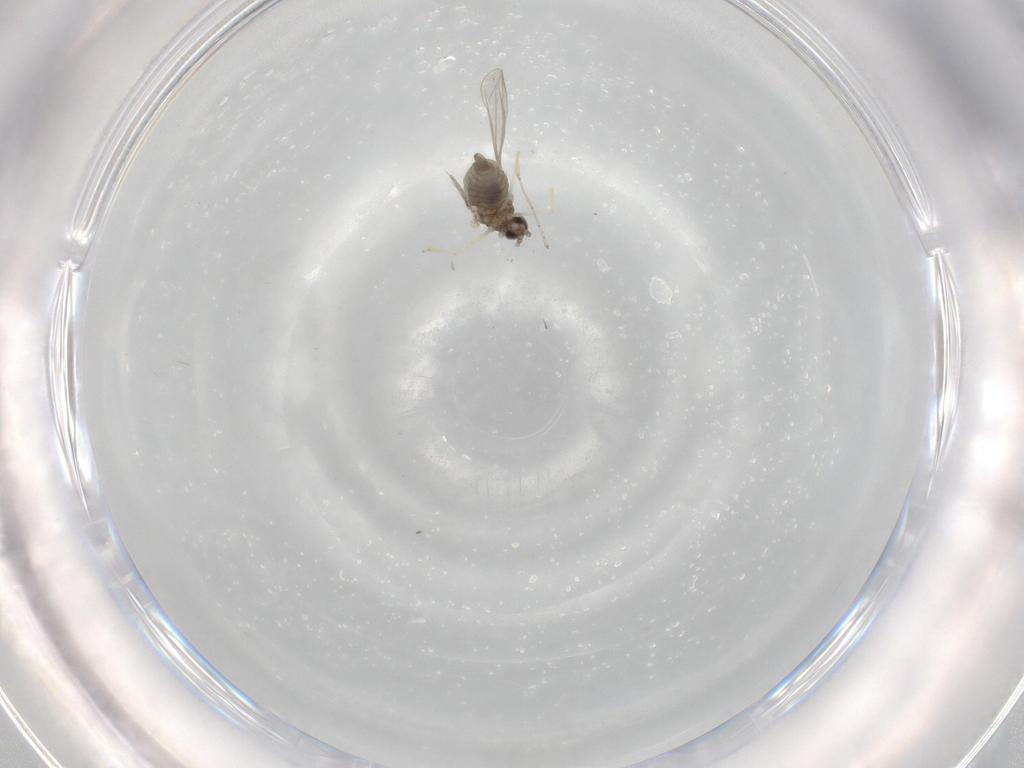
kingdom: Animalia
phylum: Arthropoda
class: Insecta
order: Diptera
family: Cecidomyiidae
